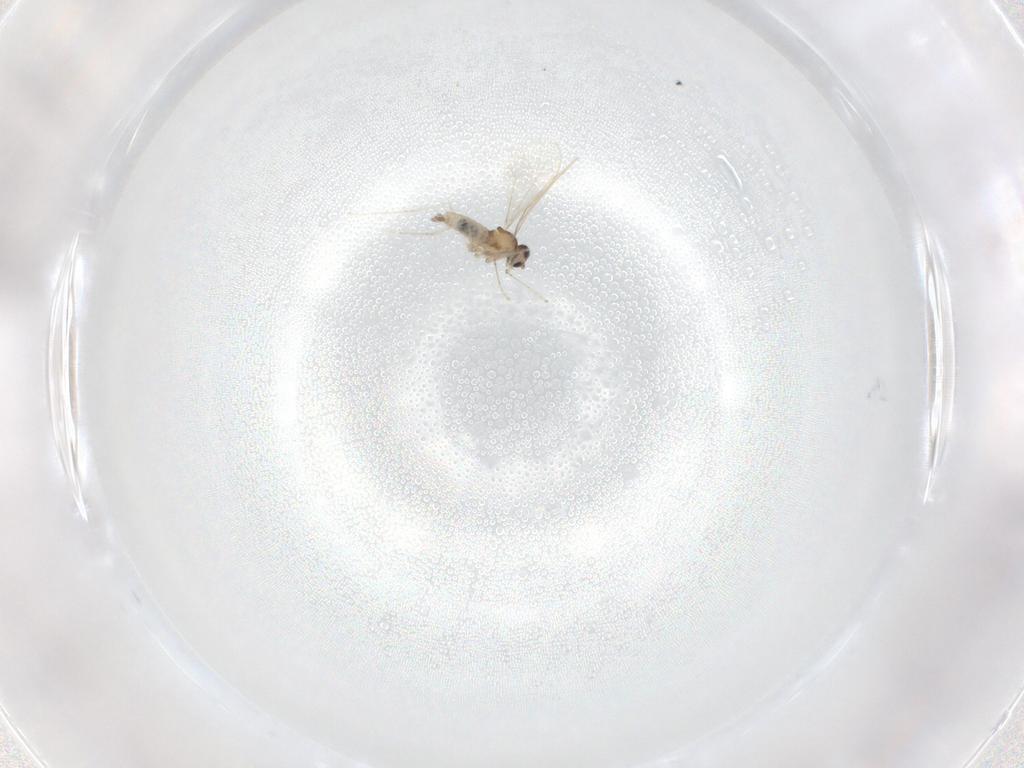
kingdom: Animalia
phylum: Arthropoda
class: Insecta
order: Diptera
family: Cecidomyiidae
